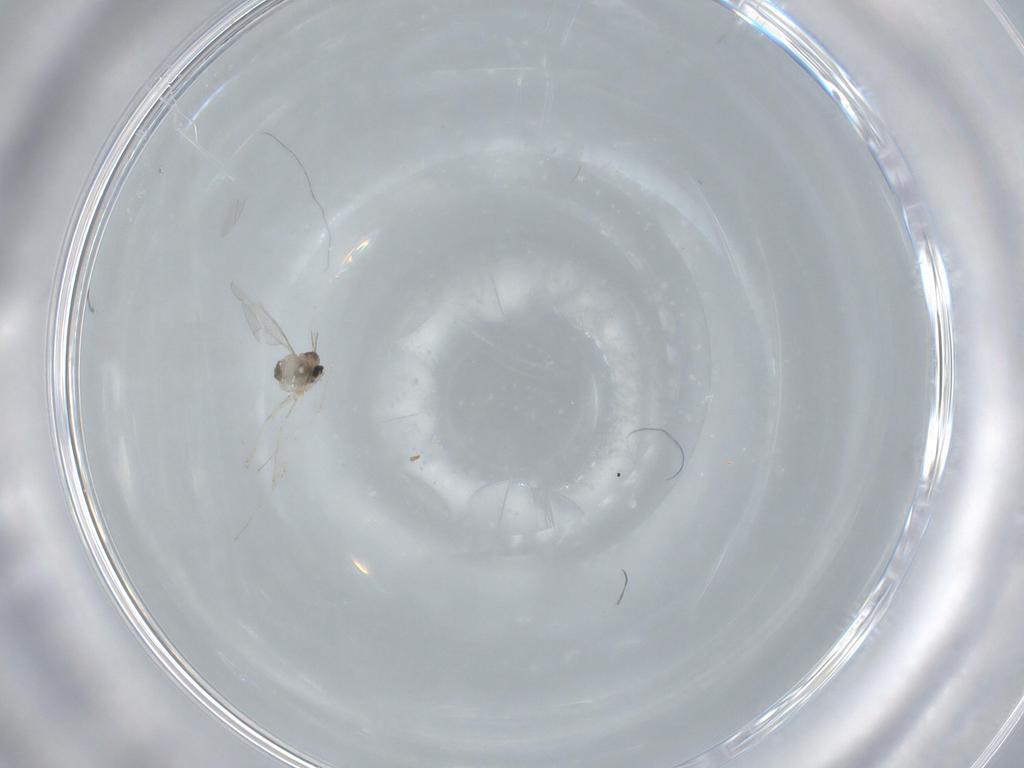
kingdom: Animalia
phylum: Arthropoda
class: Insecta
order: Diptera
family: Cecidomyiidae
